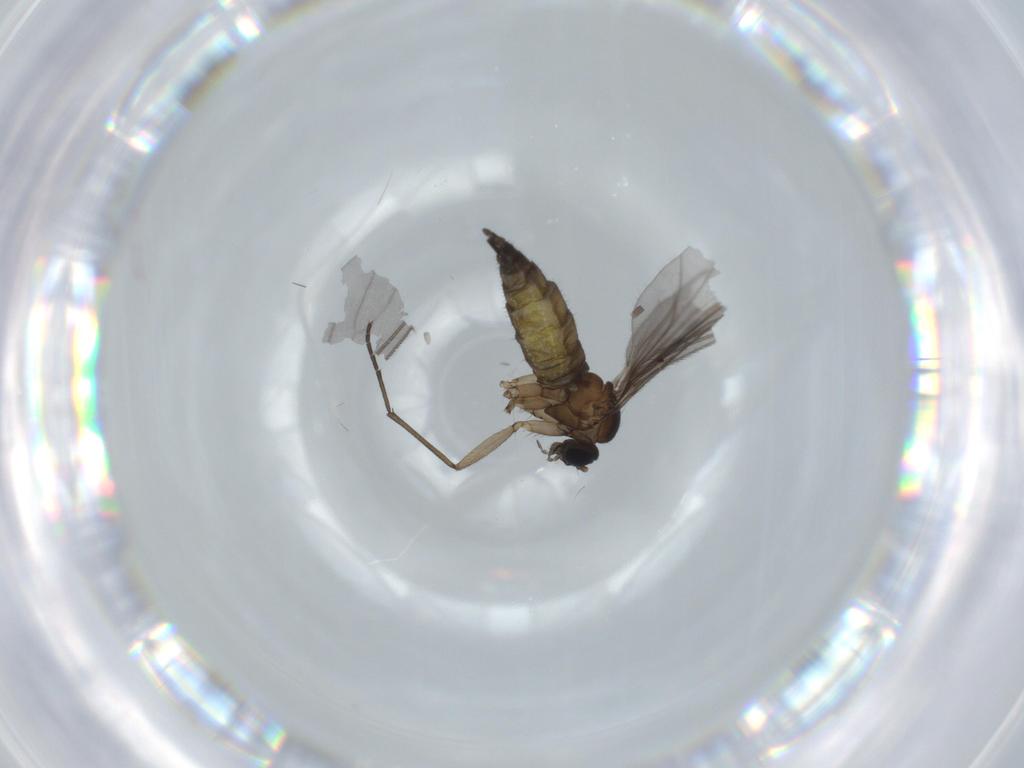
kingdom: Animalia
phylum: Arthropoda
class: Insecta
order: Diptera
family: Sciaridae
